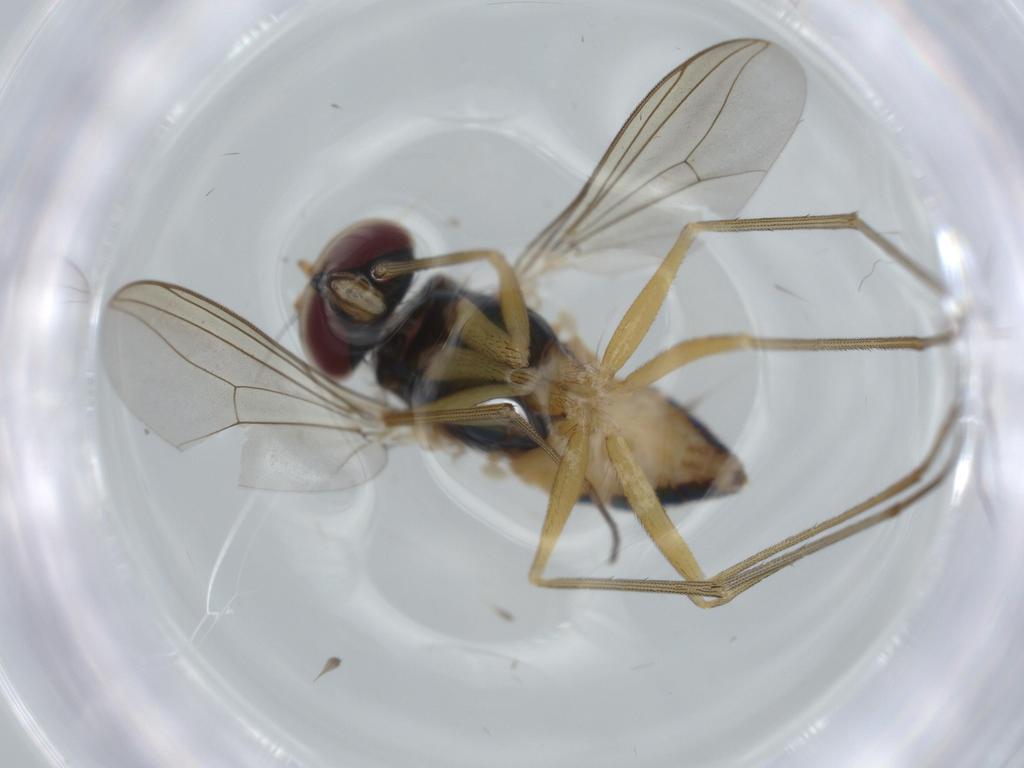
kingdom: Animalia
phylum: Arthropoda
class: Insecta
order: Diptera
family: Dolichopodidae
